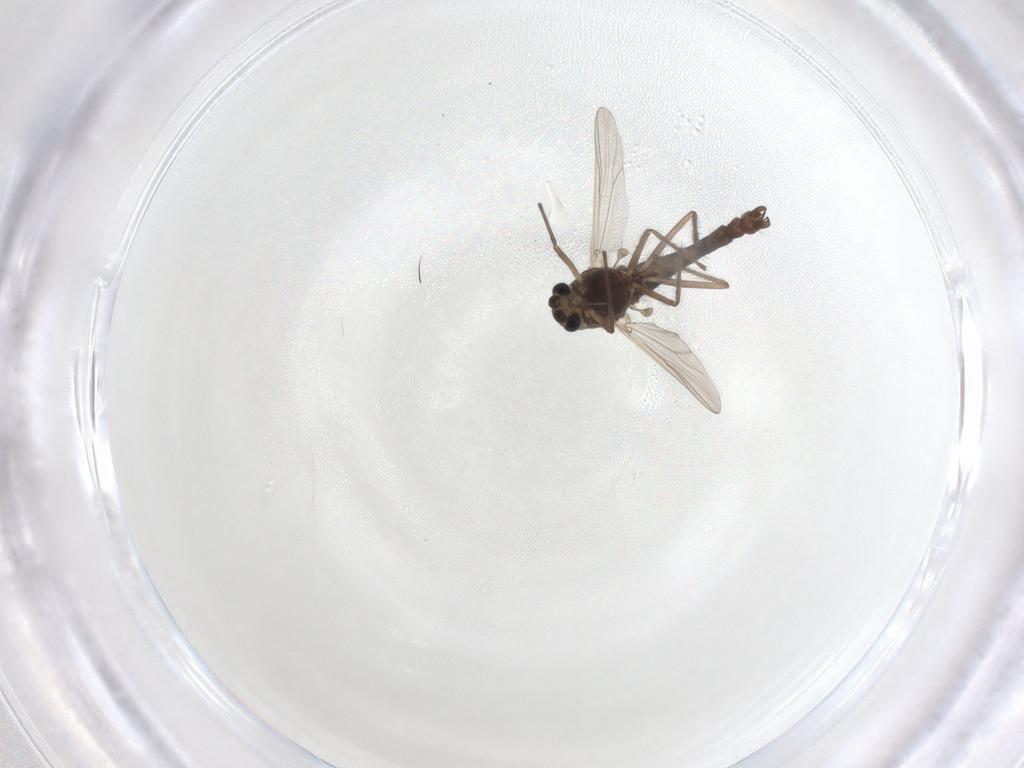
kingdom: Animalia
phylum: Arthropoda
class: Insecta
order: Diptera
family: Chironomidae
